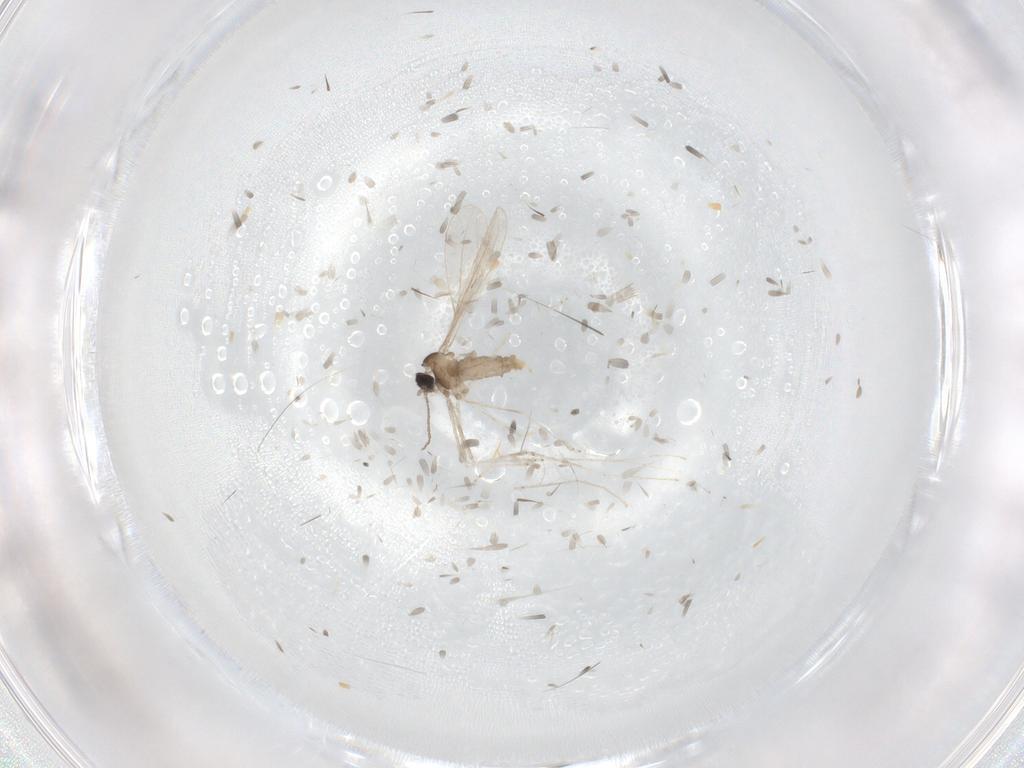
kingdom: Animalia
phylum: Arthropoda
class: Insecta
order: Diptera
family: Cecidomyiidae
